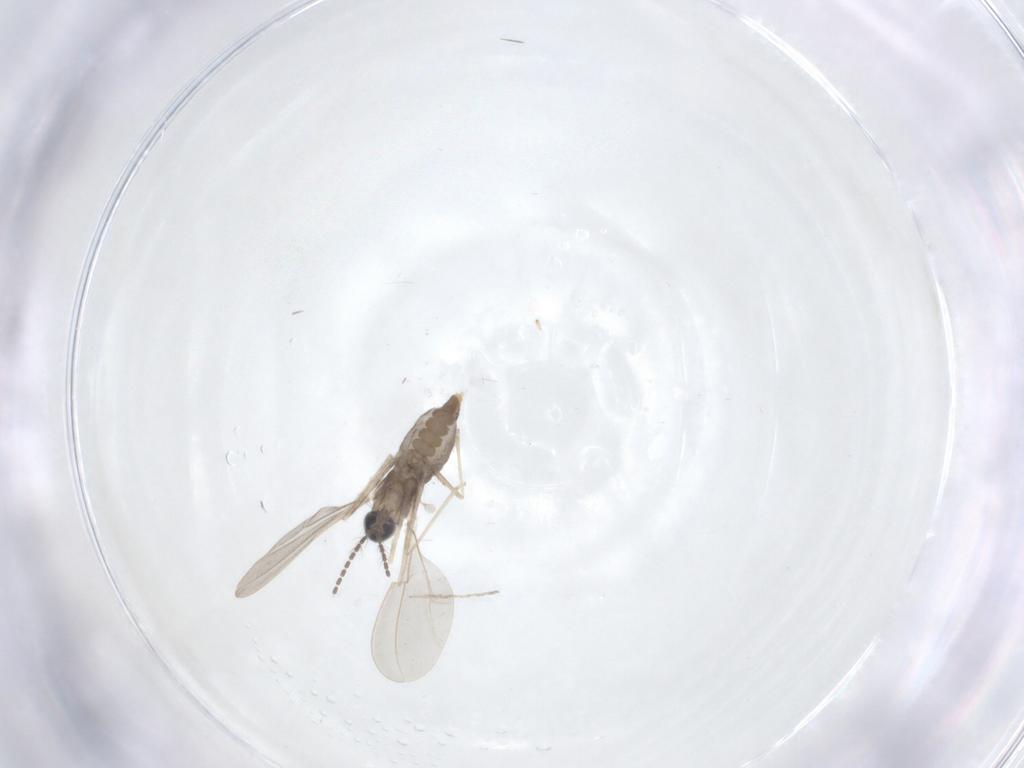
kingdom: Animalia
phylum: Arthropoda
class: Insecta
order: Diptera
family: Cecidomyiidae
